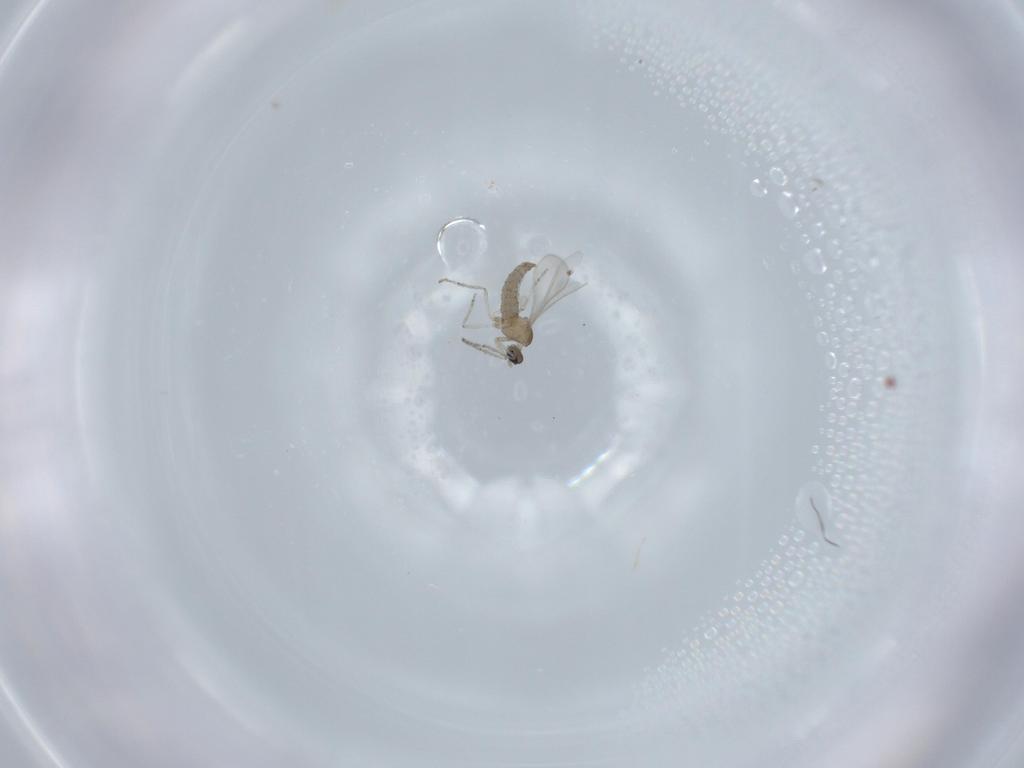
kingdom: Animalia
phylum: Arthropoda
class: Insecta
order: Diptera
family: Cecidomyiidae
